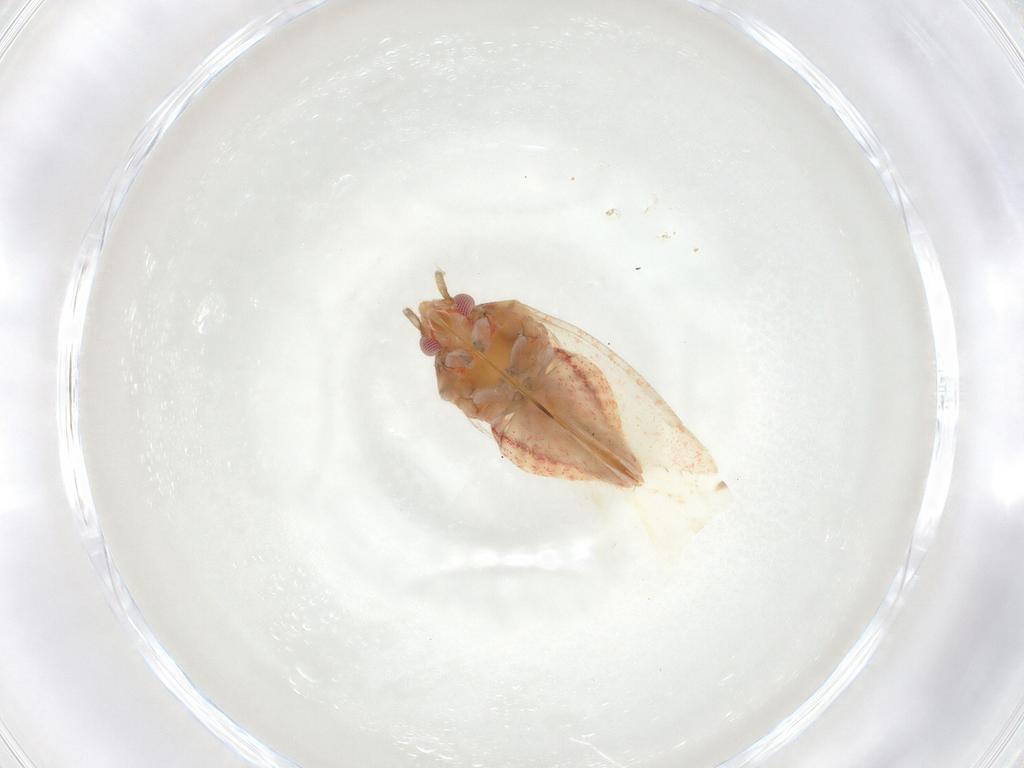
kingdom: Animalia
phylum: Arthropoda
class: Insecta
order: Hemiptera
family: Miridae
